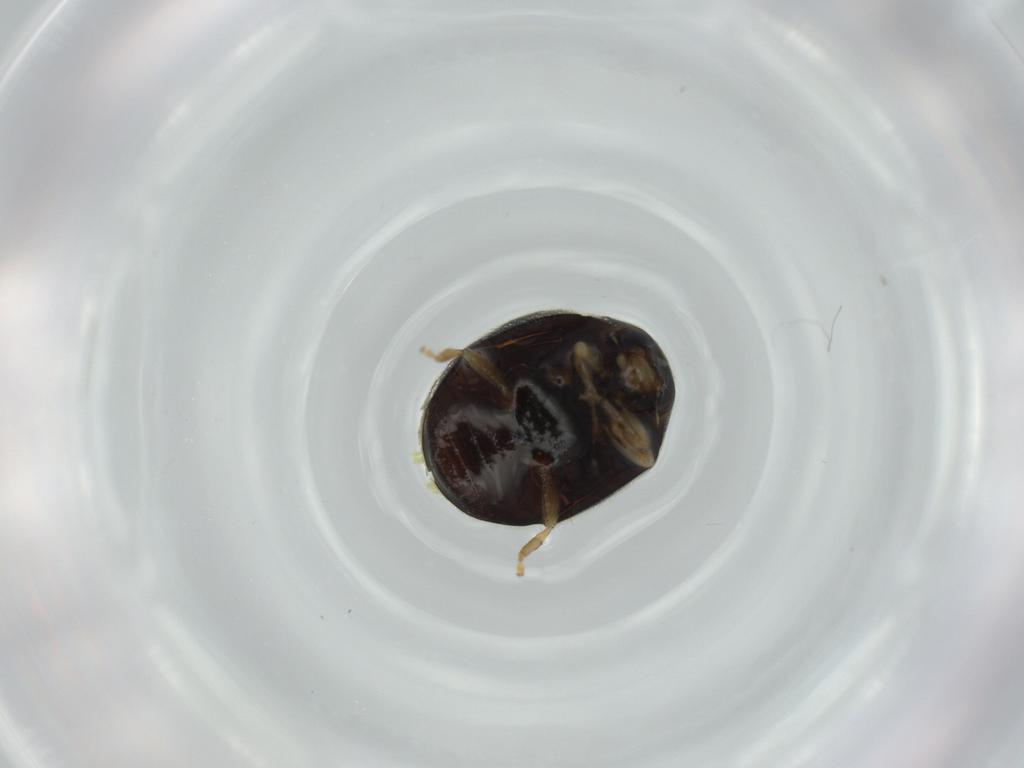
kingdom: Animalia
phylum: Arthropoda
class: Insecta
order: Coleoptera
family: Coccinellidae
